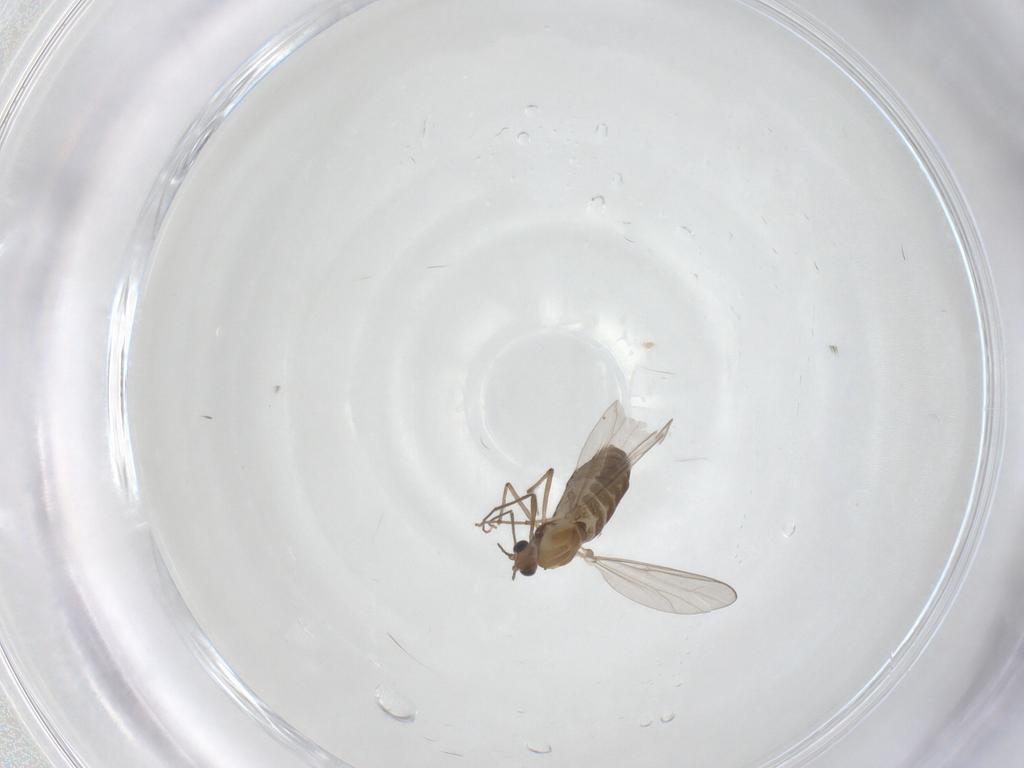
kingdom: Animalia
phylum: Arthropoda
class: Insecta
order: Diptera
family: Chironomidae
